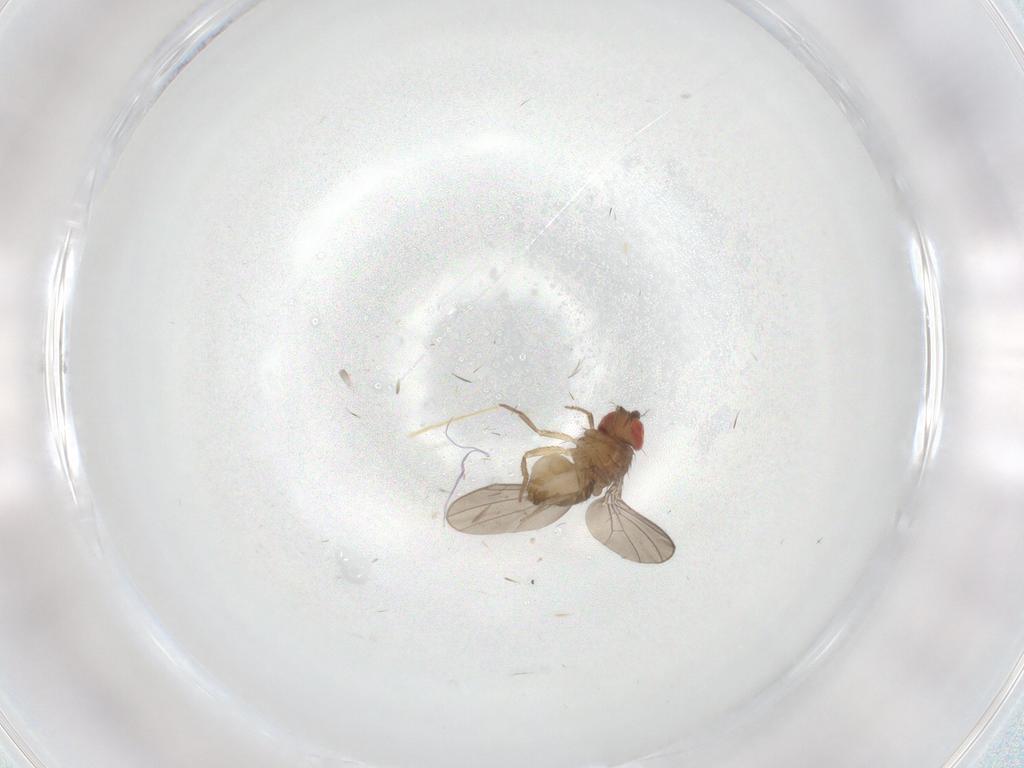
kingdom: Animalia
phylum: Arthropoda
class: Insecta
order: Diptera
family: Drosophilidae
